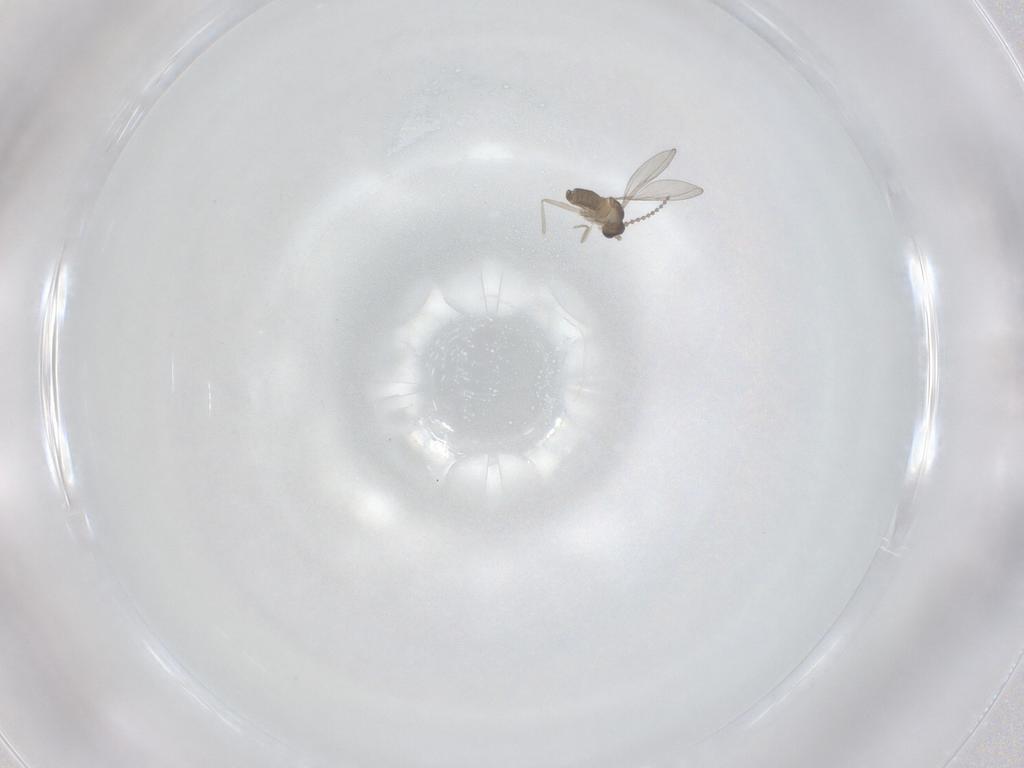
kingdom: Animalia
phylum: Arthropoda
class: Insecta
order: Diptera
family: Cecidomyiidae
